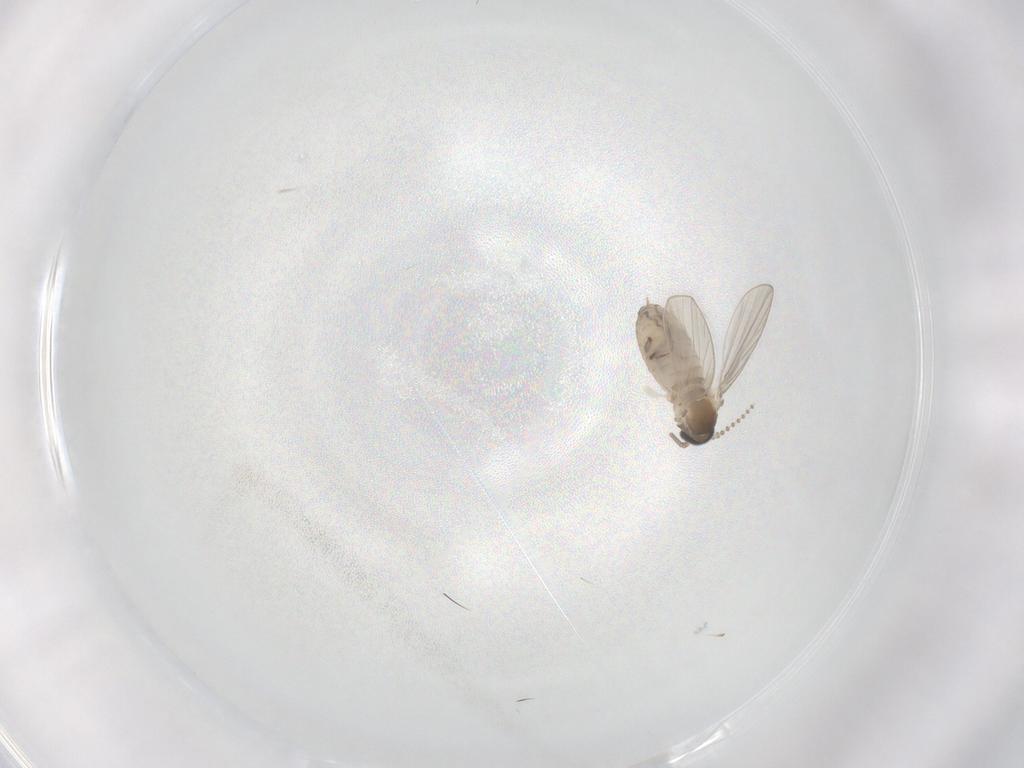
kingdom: Animalia
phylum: Arthropoda
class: Insecta
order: Diptera
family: Psychodidae
